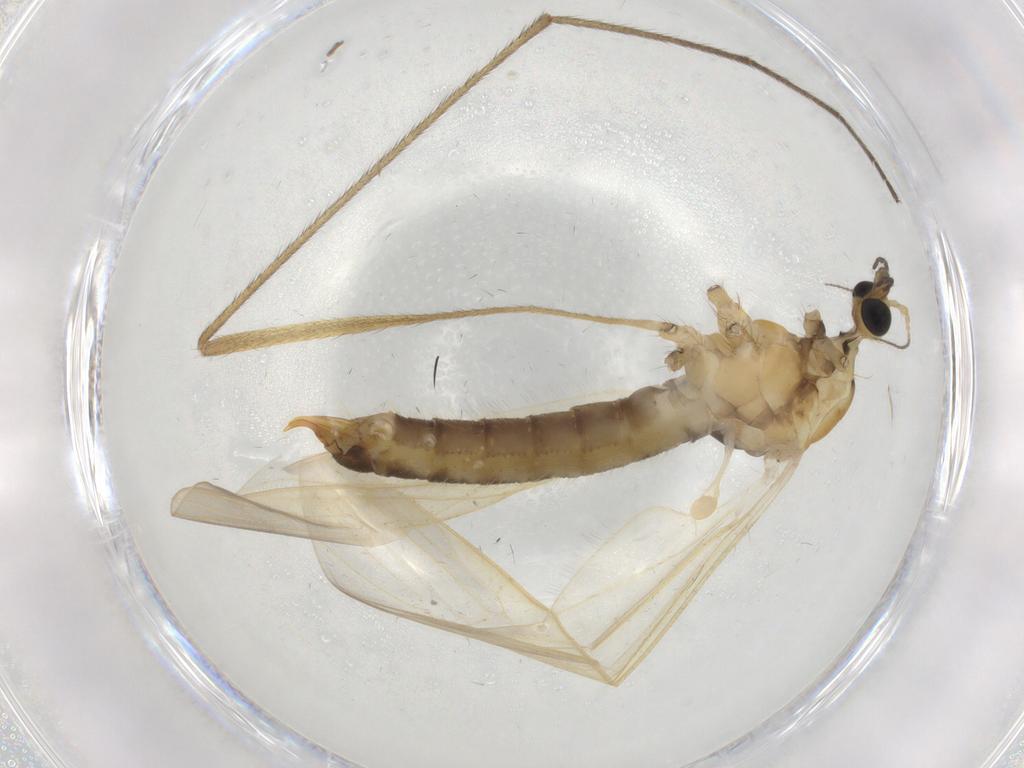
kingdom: Animalia
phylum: Arthropoda
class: Insecta
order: Diptera
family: Limoniidae
